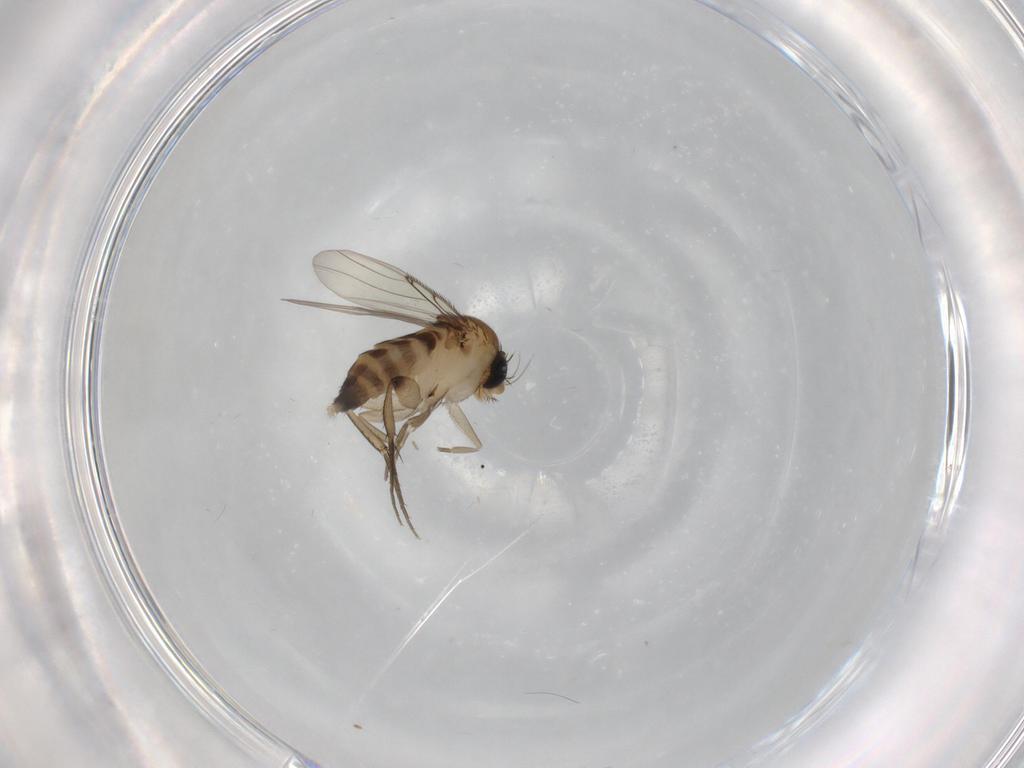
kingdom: Animalia
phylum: Arthropoda
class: Insecta
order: Diptera
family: Phoridae
